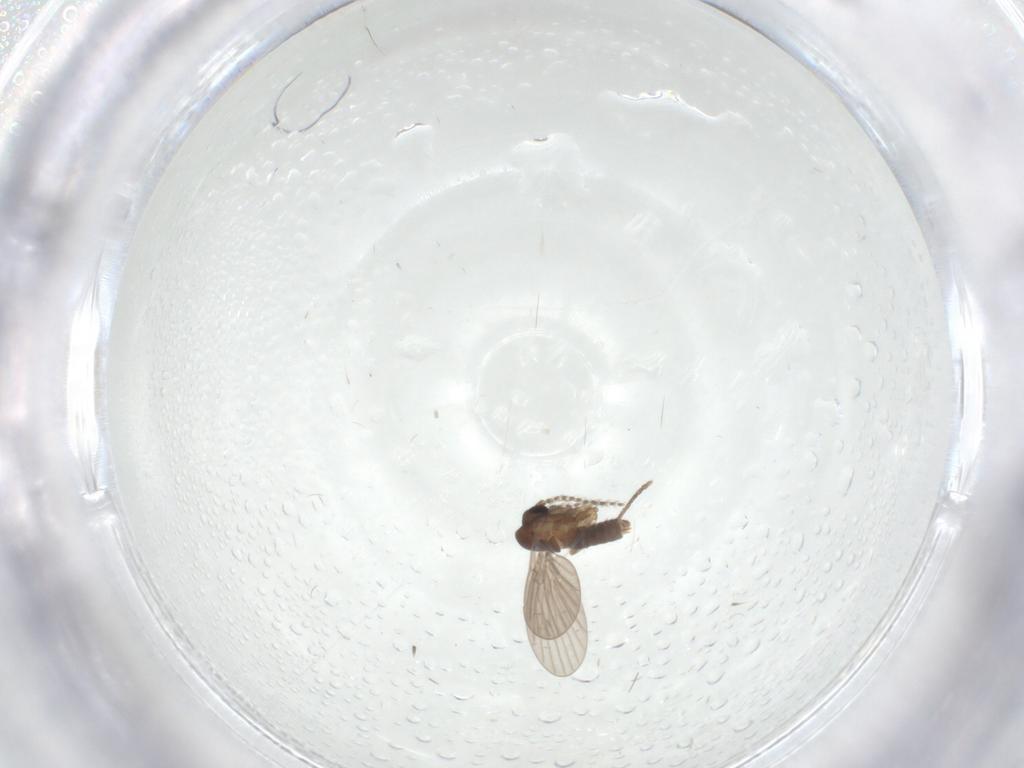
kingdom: Animalia
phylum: Arthropoda
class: Insecta
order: Diptera
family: Psychodidae
